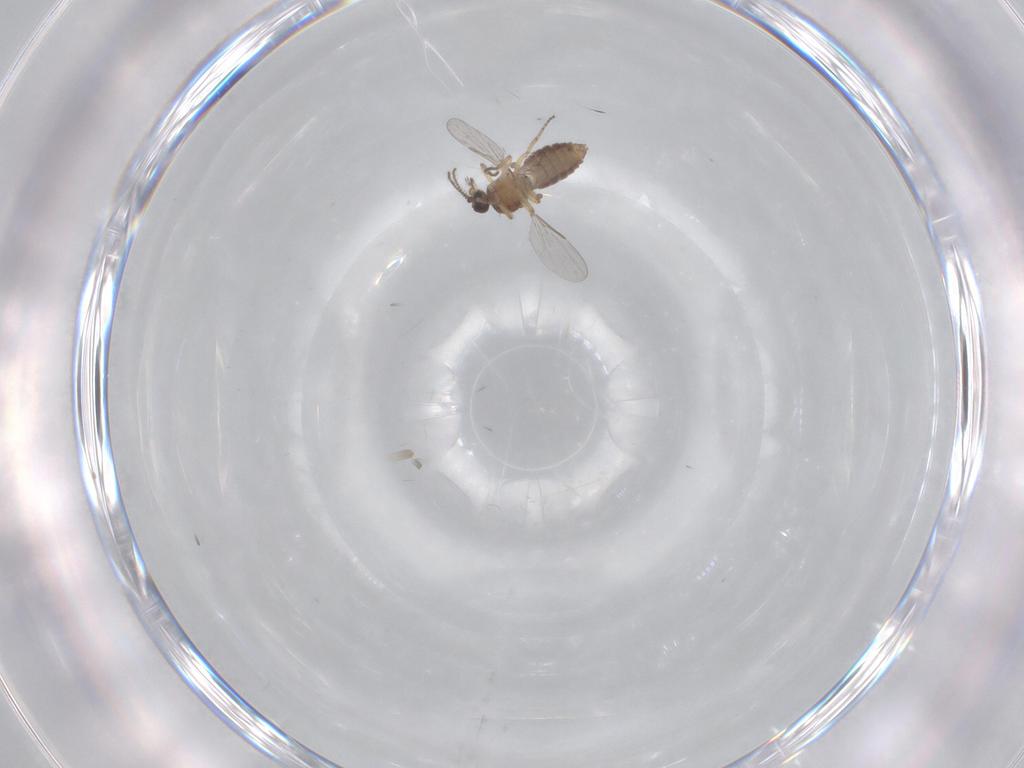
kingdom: Animalia
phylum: Arthropoda
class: Insecta
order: Diptera
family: Ceratopogonidae
